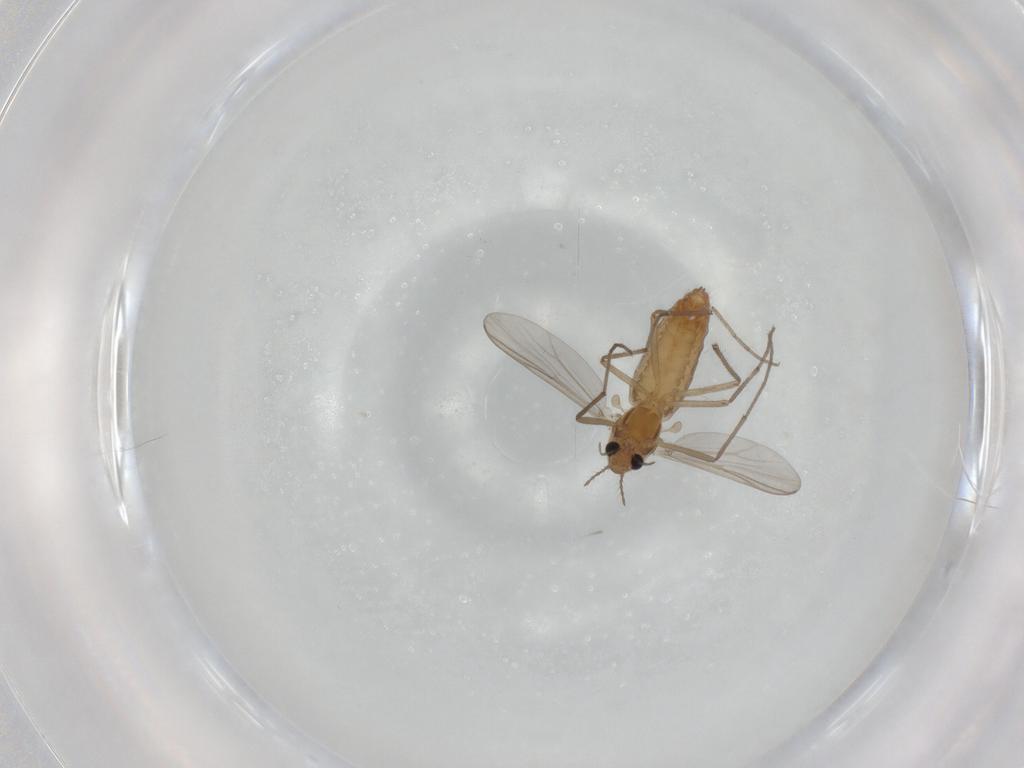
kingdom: Animalia
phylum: Arthropoda
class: Insecta
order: Diptera
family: Chironomidae
